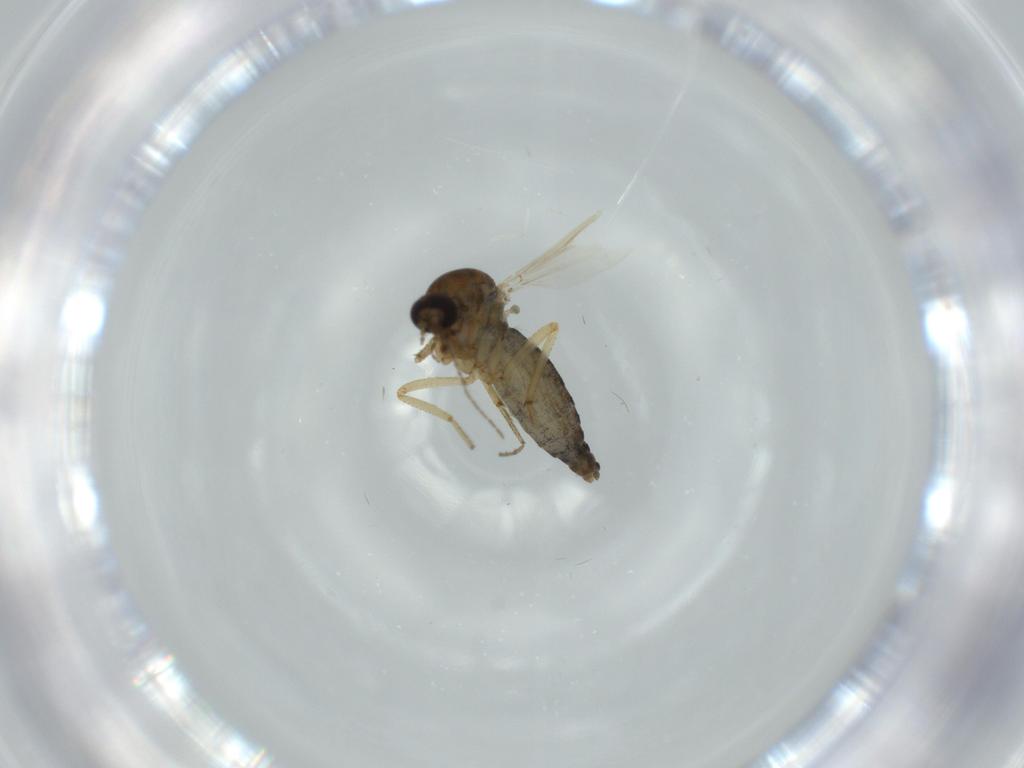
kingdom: Animalia
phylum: Arthropoda
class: Insecta
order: Diptera
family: Ceratopogonidae
